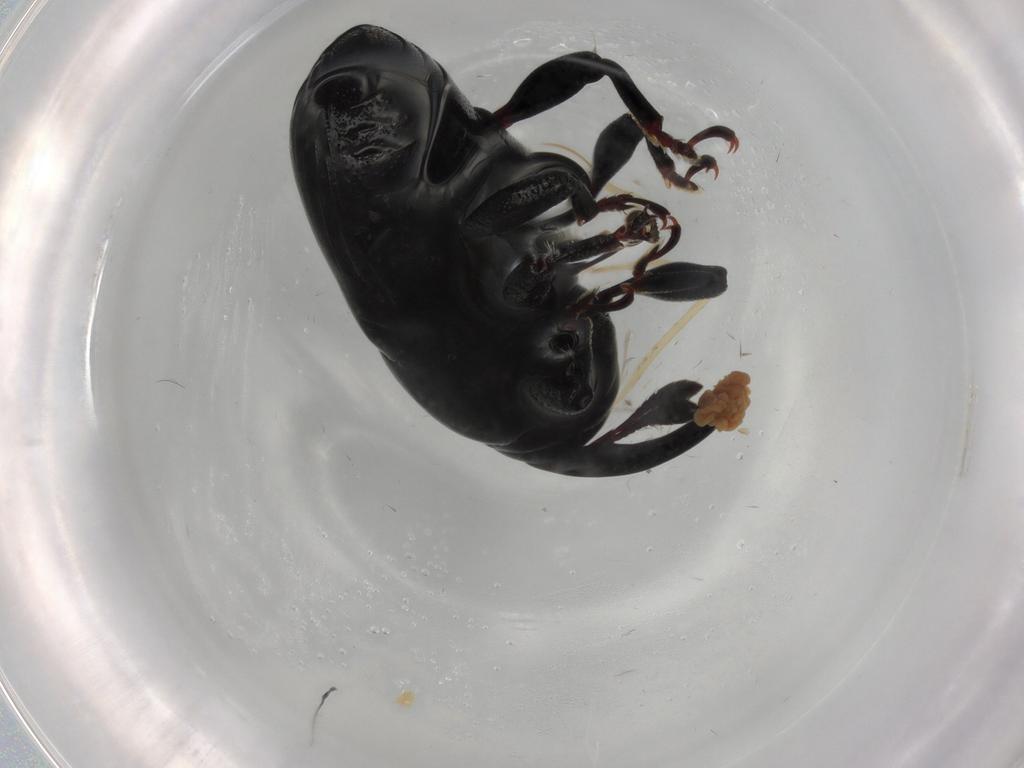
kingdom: Animalia
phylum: Arthropoda
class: Insecta
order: Coleoptera
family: Curculionidae
